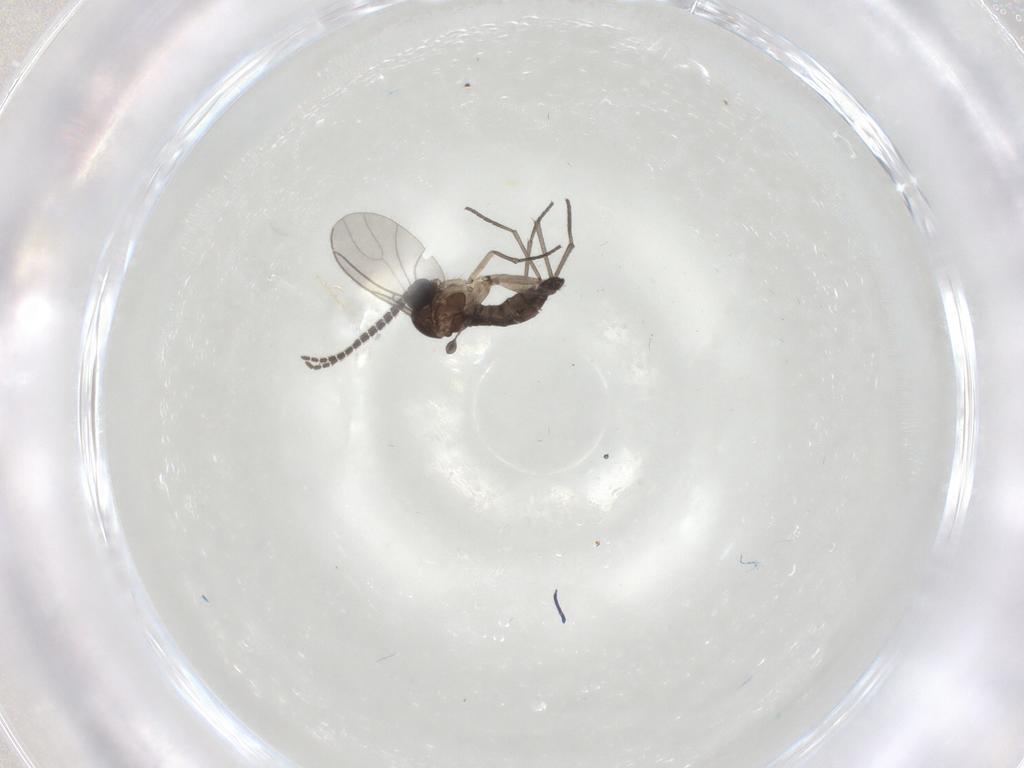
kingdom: Animalia
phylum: Arthropoda
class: Insecta
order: Diptera
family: Sciaridae
